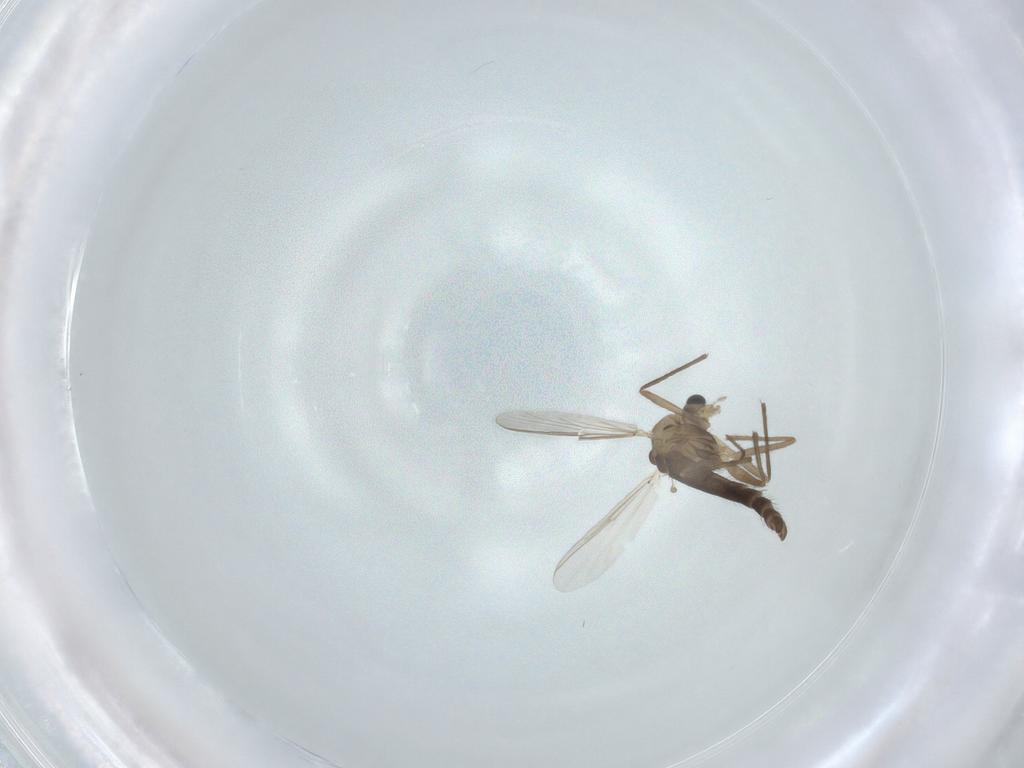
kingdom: Animalia
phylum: Arthropoda
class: Insecta
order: Diptera
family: Chironomidae
